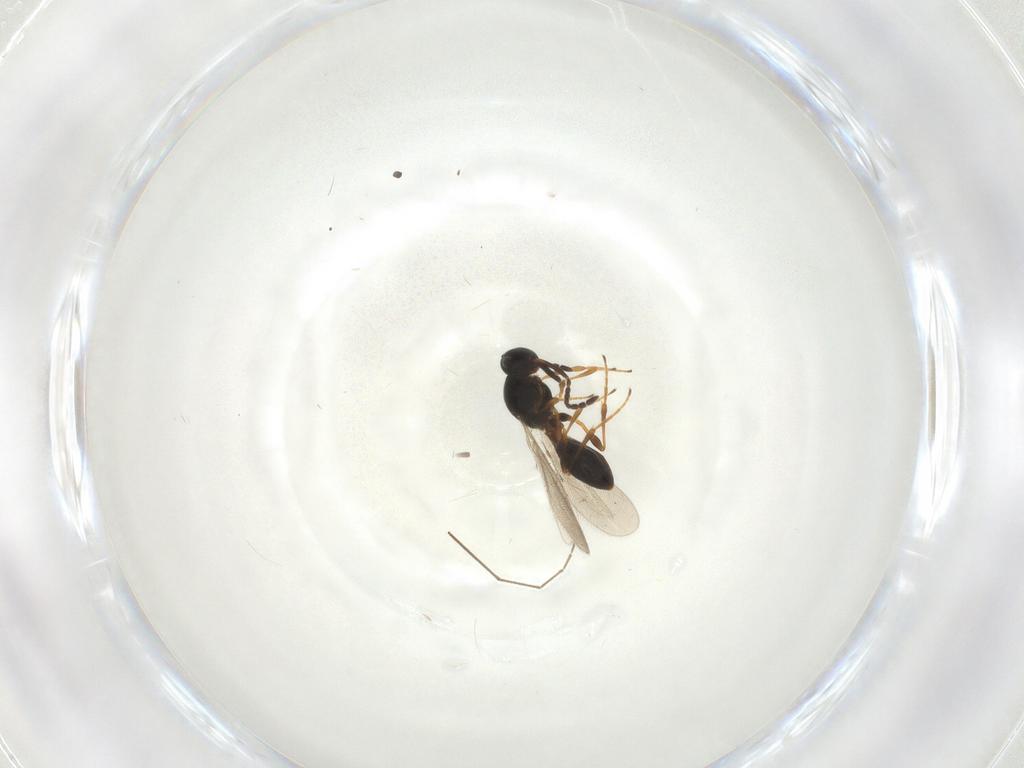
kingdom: Animalia
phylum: Arthropoda
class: Insecta
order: Hymenoptera
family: Platygastridae
